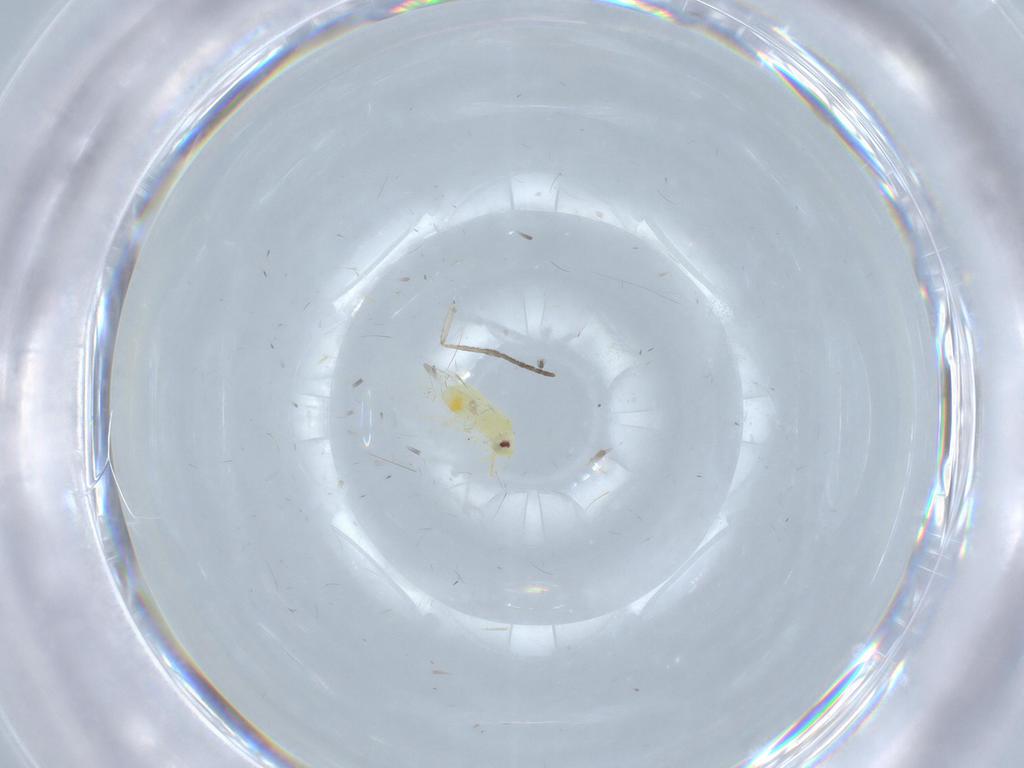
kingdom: Animalia
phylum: Arthropoda
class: Insecta
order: Hemiptera
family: Aleyrodidae
